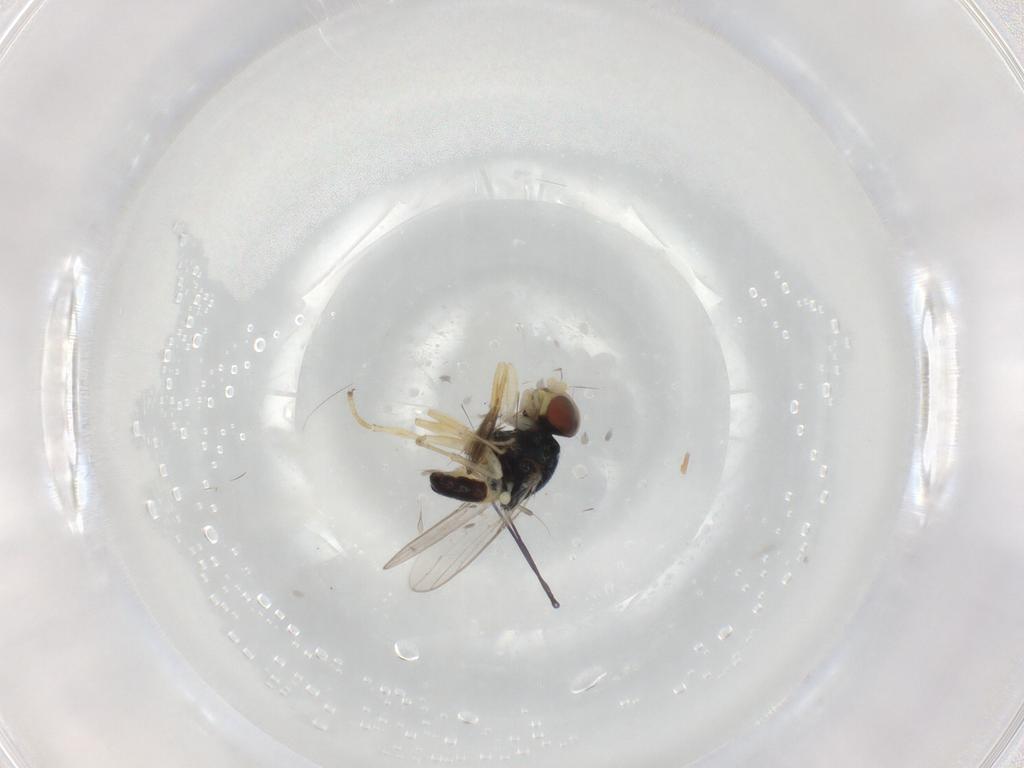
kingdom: Animalia
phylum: Arthropoda
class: Insecta
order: Diptera
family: Chloropidae
